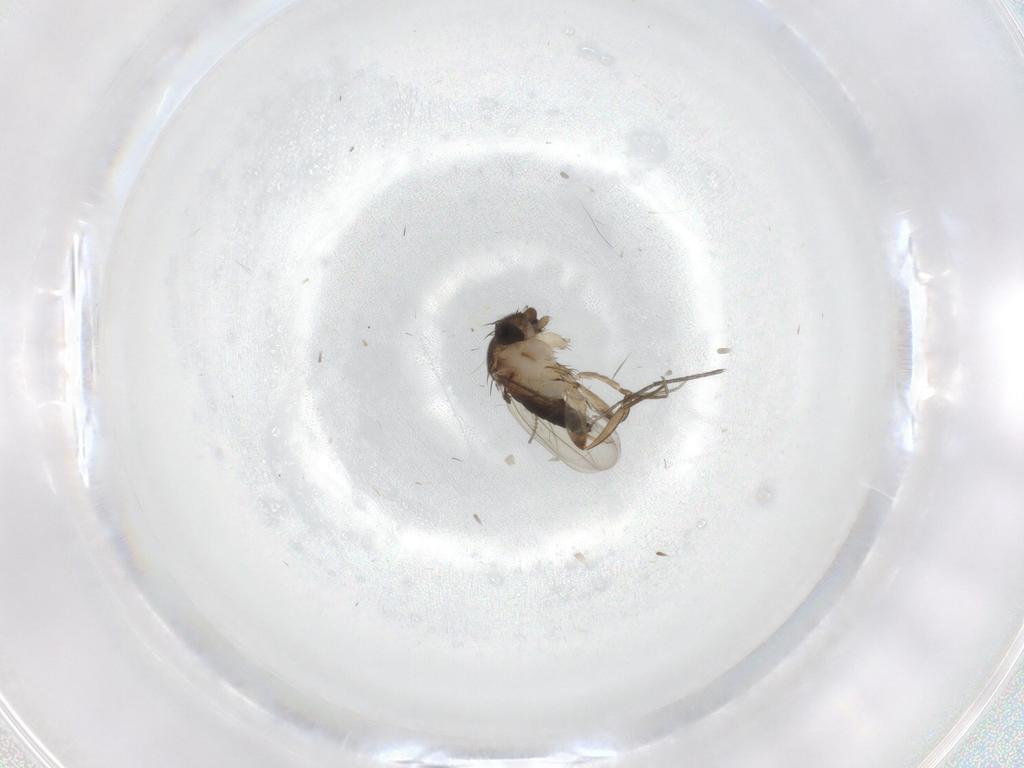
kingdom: Animalia
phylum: Arthropoda
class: Insecta
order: Diptera
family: Phoridae
